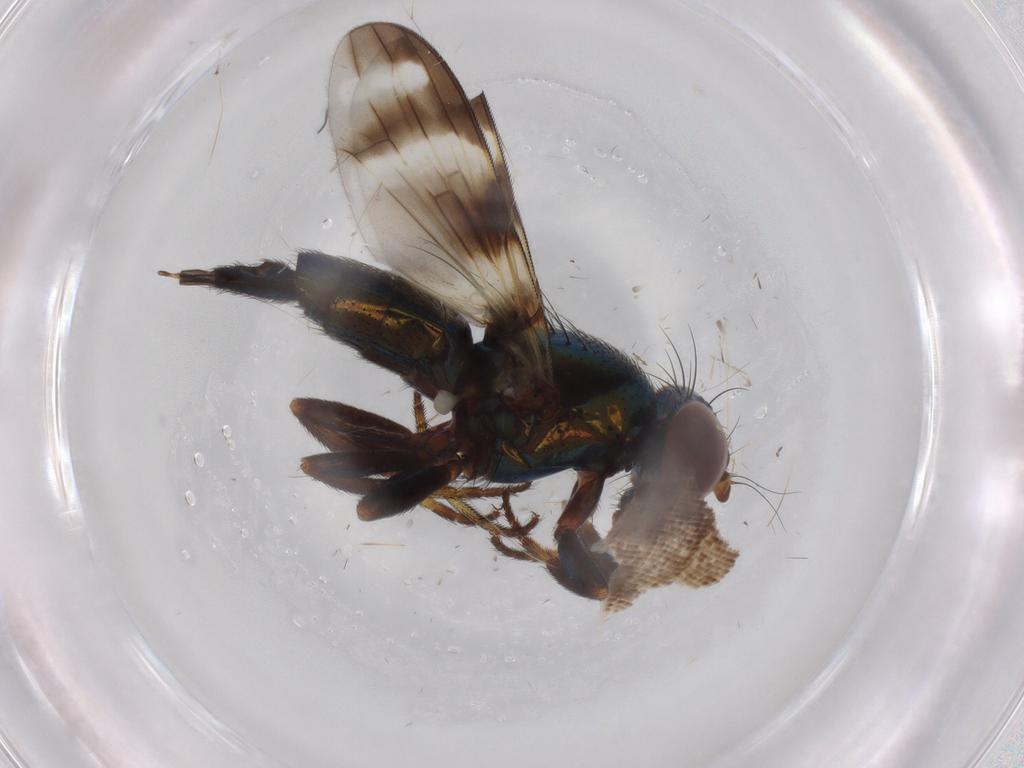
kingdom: Animalia
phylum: Arthropoda
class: Insecta
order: Diptera
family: Ulidiidae
